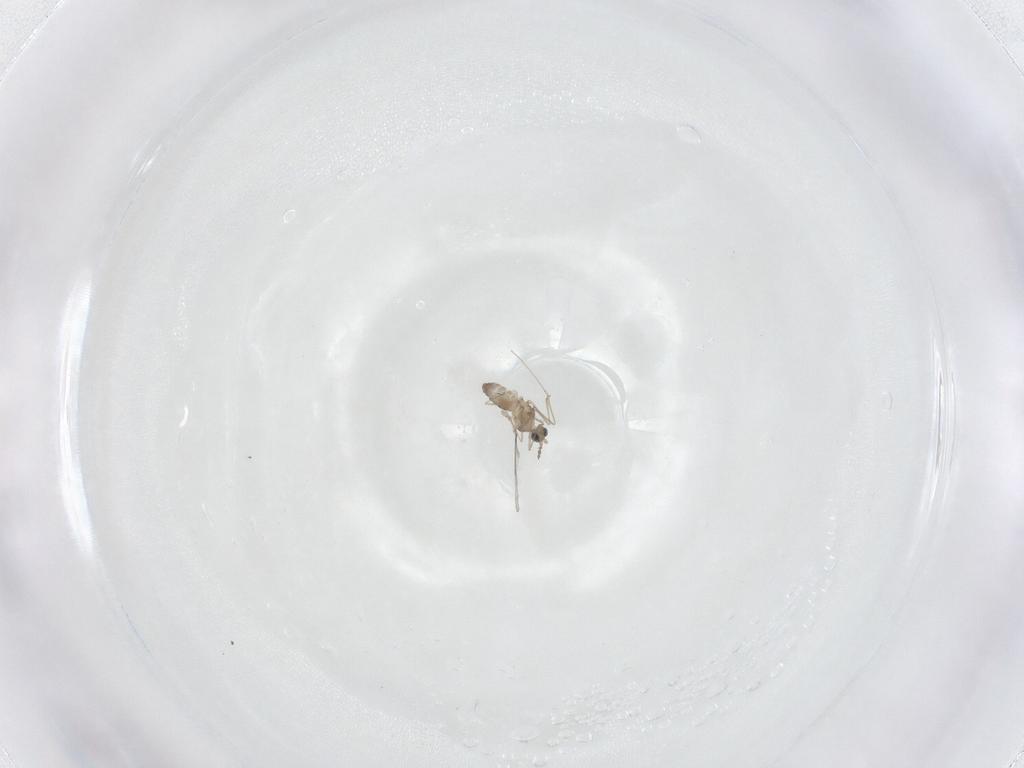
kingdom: Animalia
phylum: Arthropoda
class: Insecta
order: Diptera
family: Cecidomyiidae
